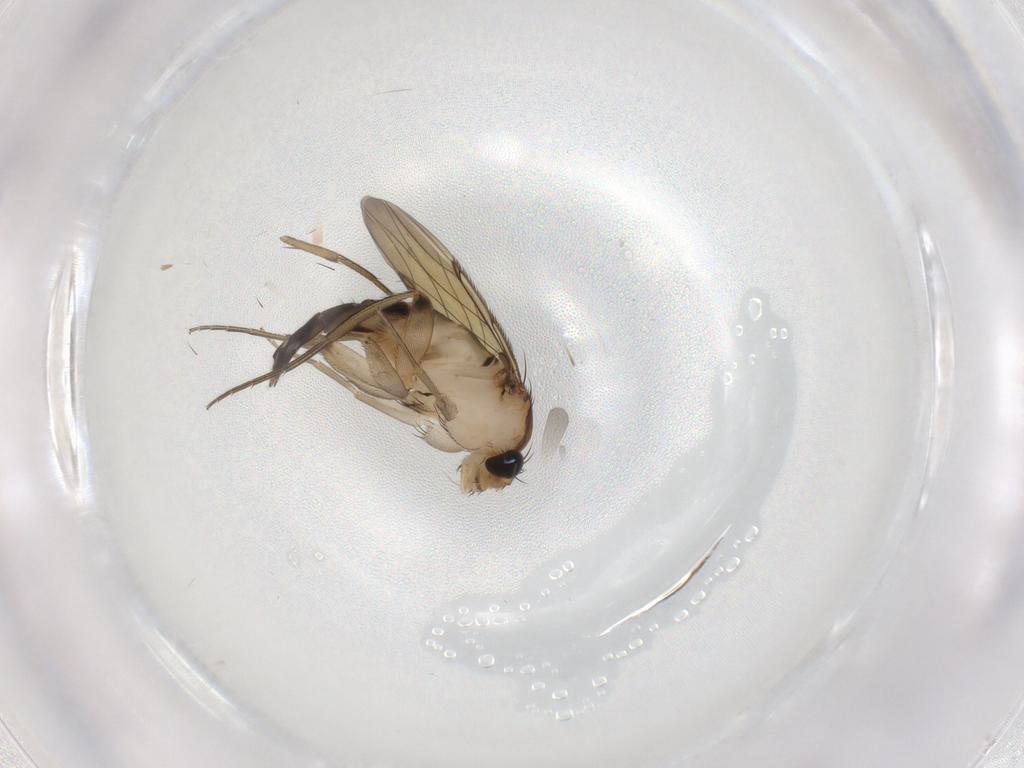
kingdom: Animalia
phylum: Arthropoda
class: Insecta
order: Diptera
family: Phoridae
